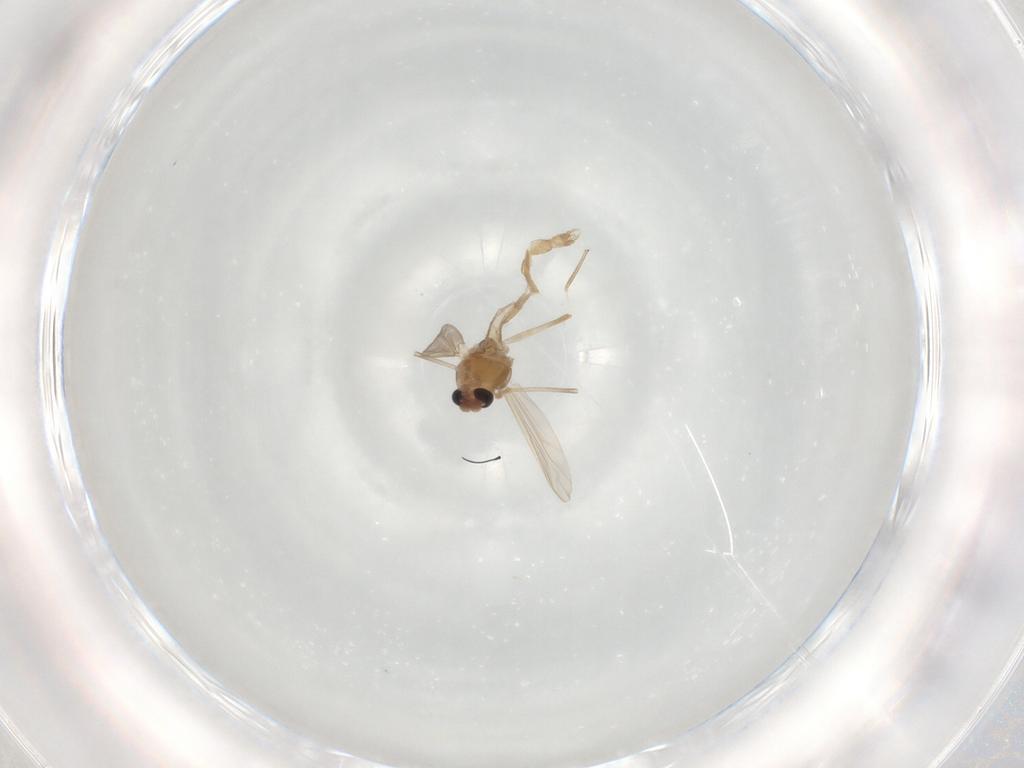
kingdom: Animalia
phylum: Arthropoda
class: Insecta
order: Diptera
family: Chironomidae
